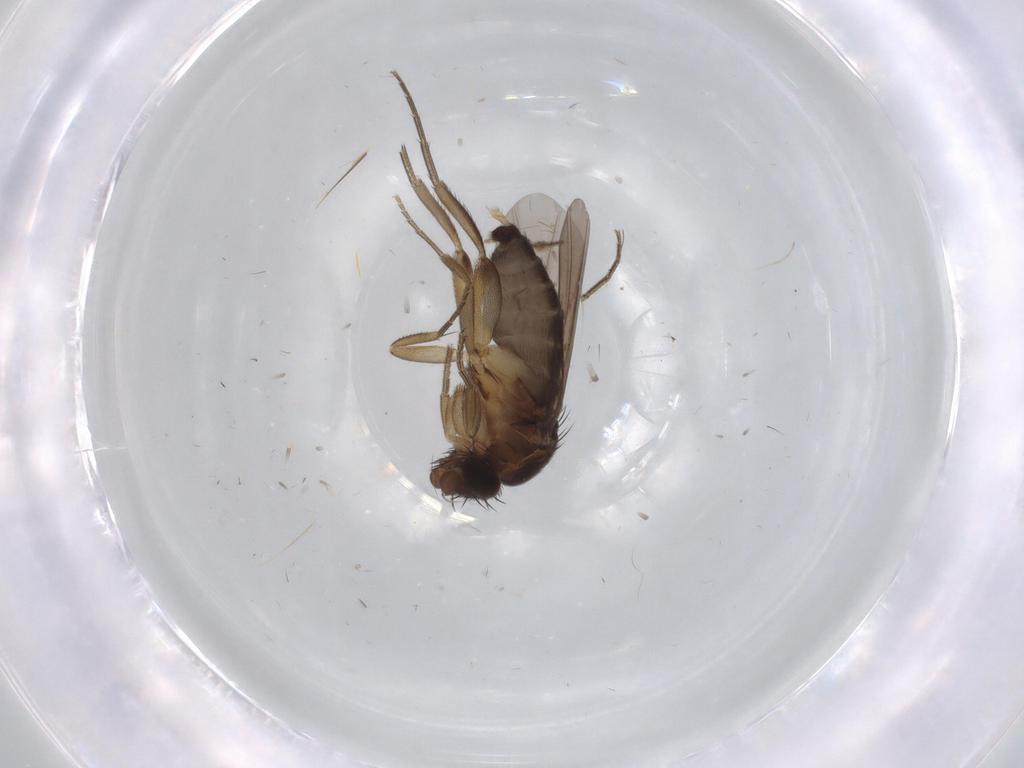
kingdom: Animalia
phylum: Arthropoda
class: Insecta
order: Diptera
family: Phoridae
